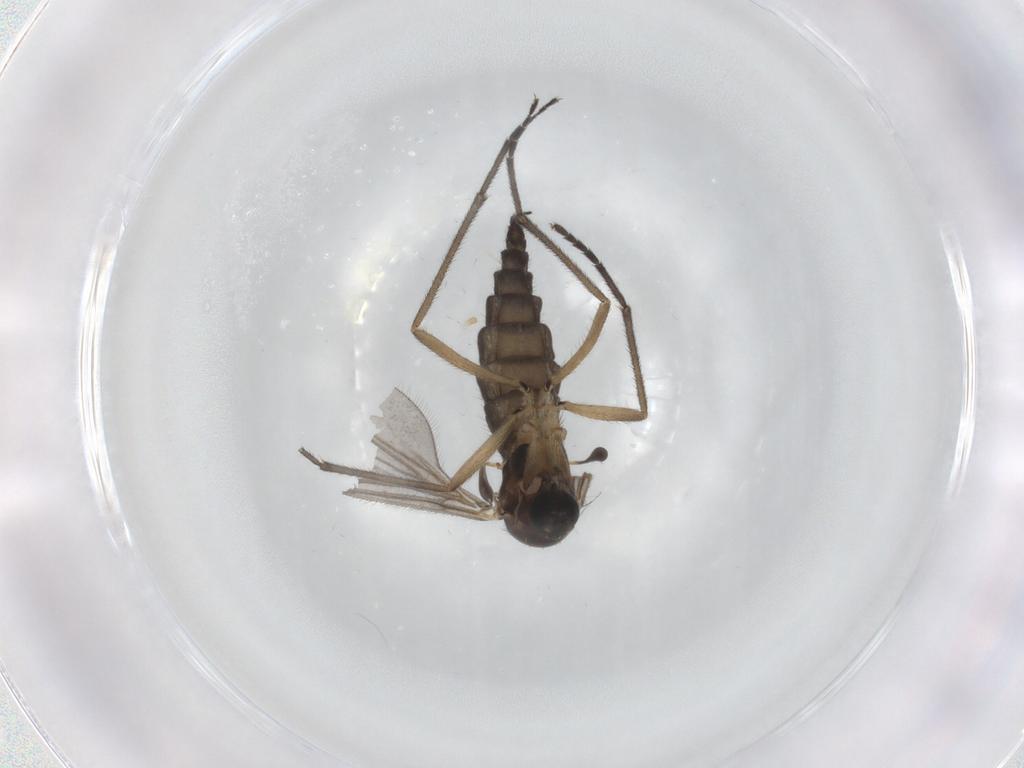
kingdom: Animalia
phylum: Arthropoda
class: Insecta
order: Diptera
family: Sciaridae
